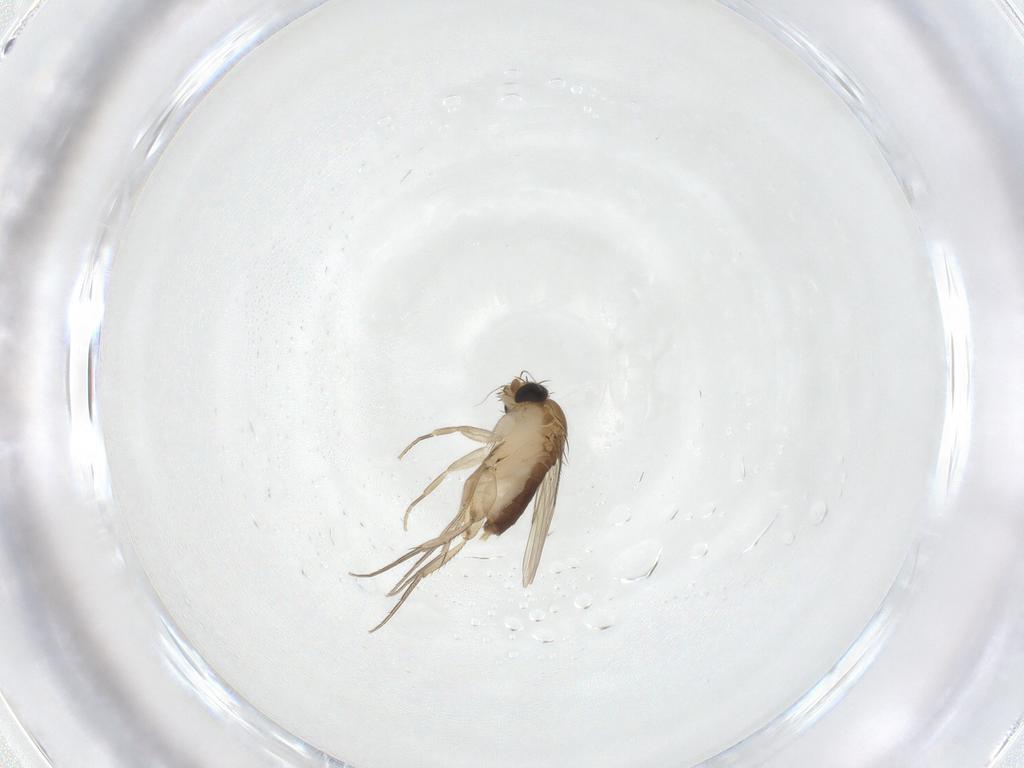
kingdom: Animalia
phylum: Arthropoda
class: Insecta
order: Diptera
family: Phoridae
